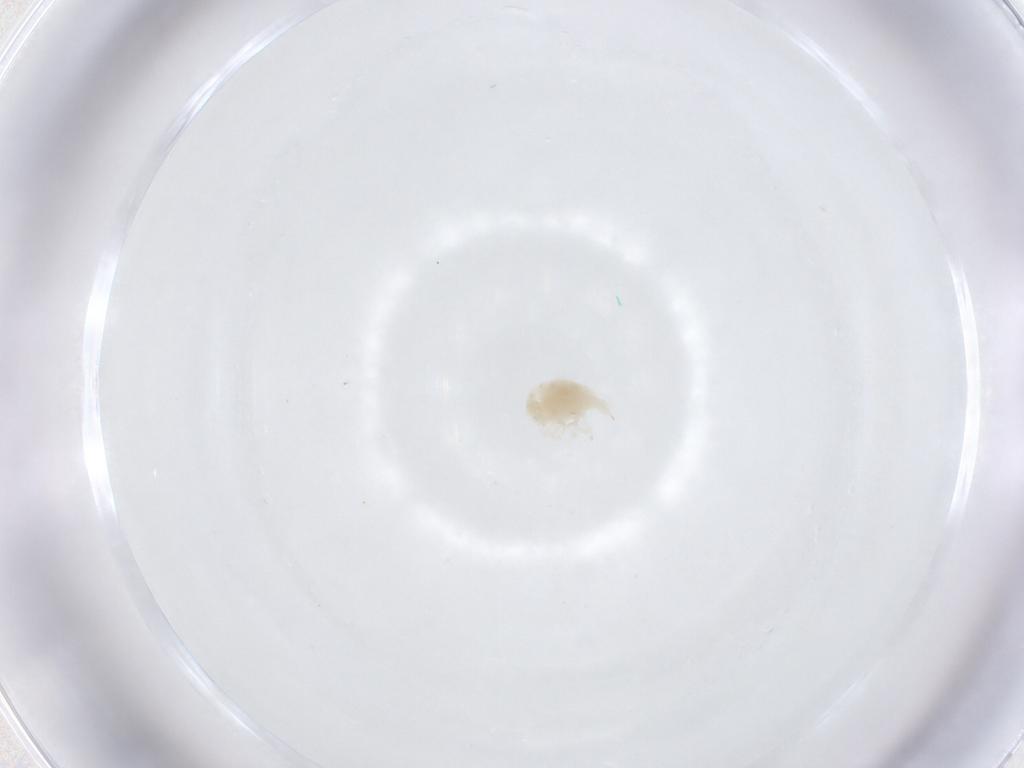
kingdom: Animalia
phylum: Arthropoda
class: Arachnida
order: Trombidiformes
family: Bdellidae
